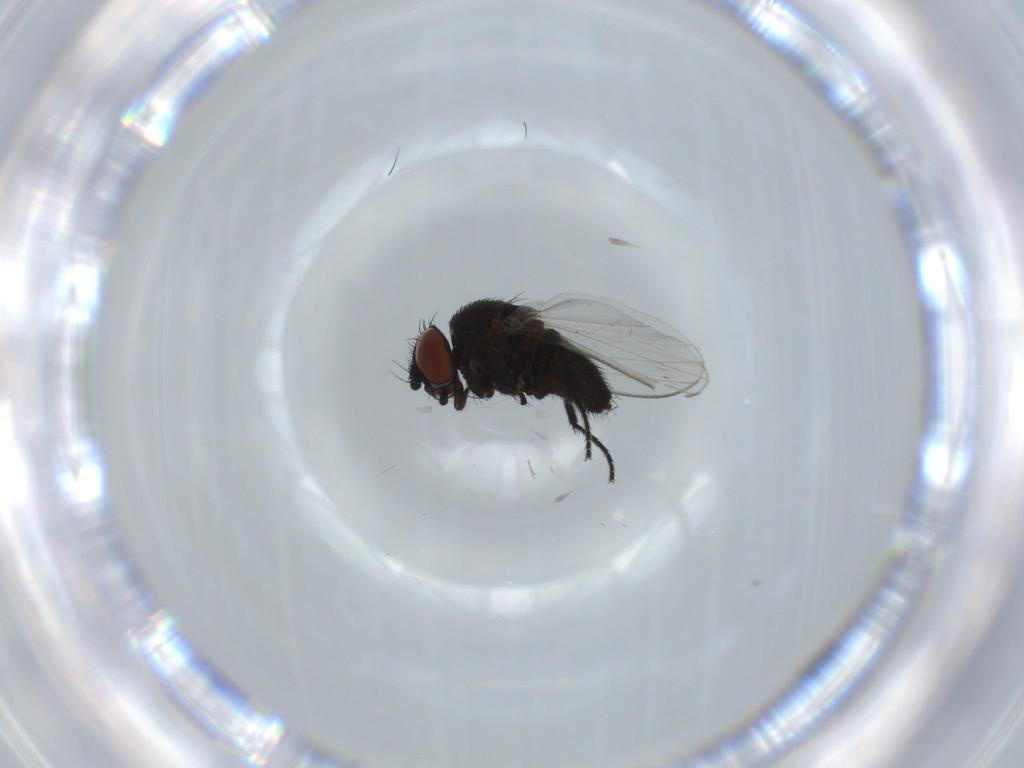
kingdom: Animalia
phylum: Arthropoda
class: Insecta
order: Diptera
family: Milichiidae
